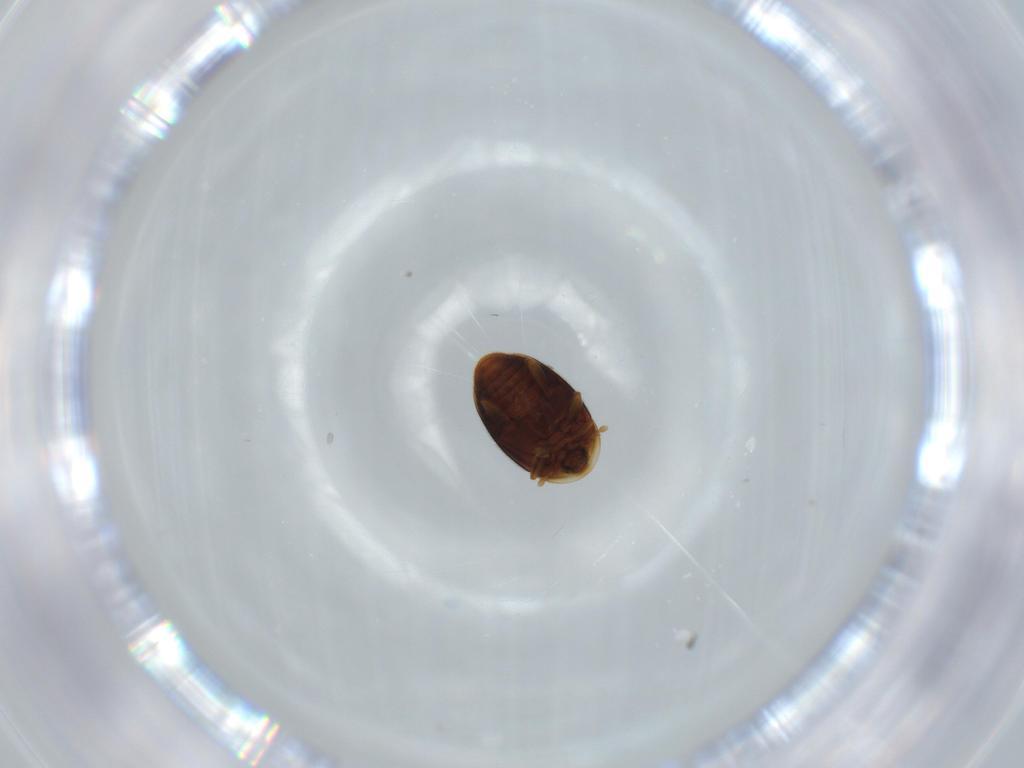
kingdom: Animalia
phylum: Arthropoda
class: Insecta
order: Coleoptera
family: Corylophidae
